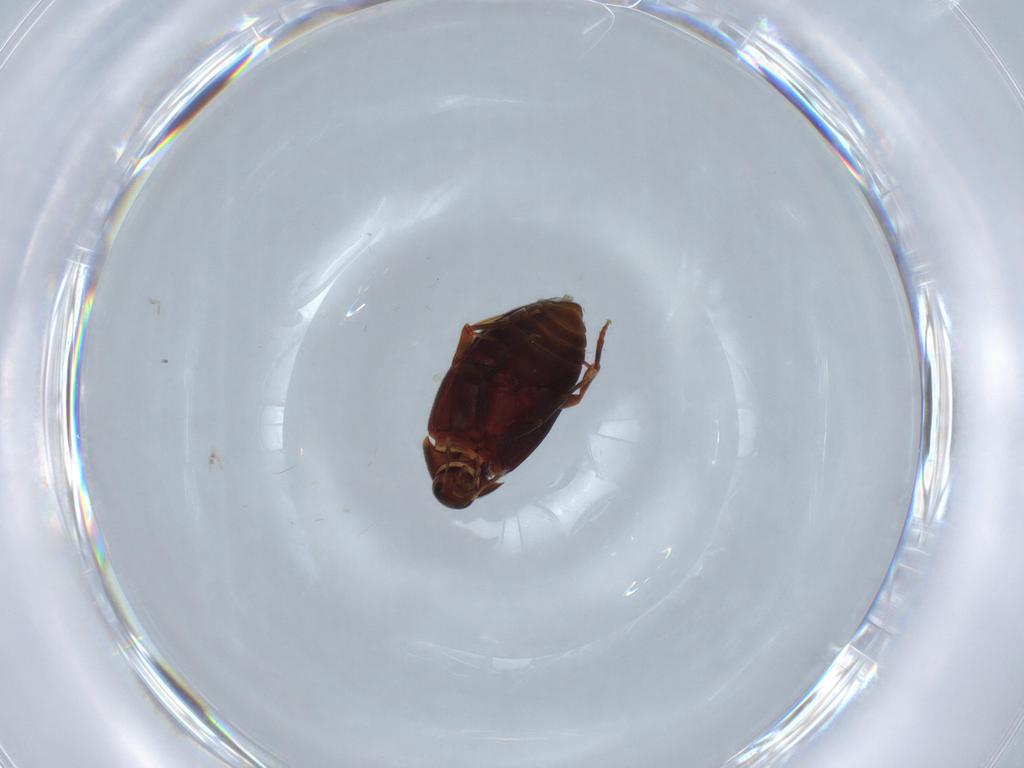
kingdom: Animalia
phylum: Arthropoda
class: Insecta
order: Coleoptera
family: Melandryidae
